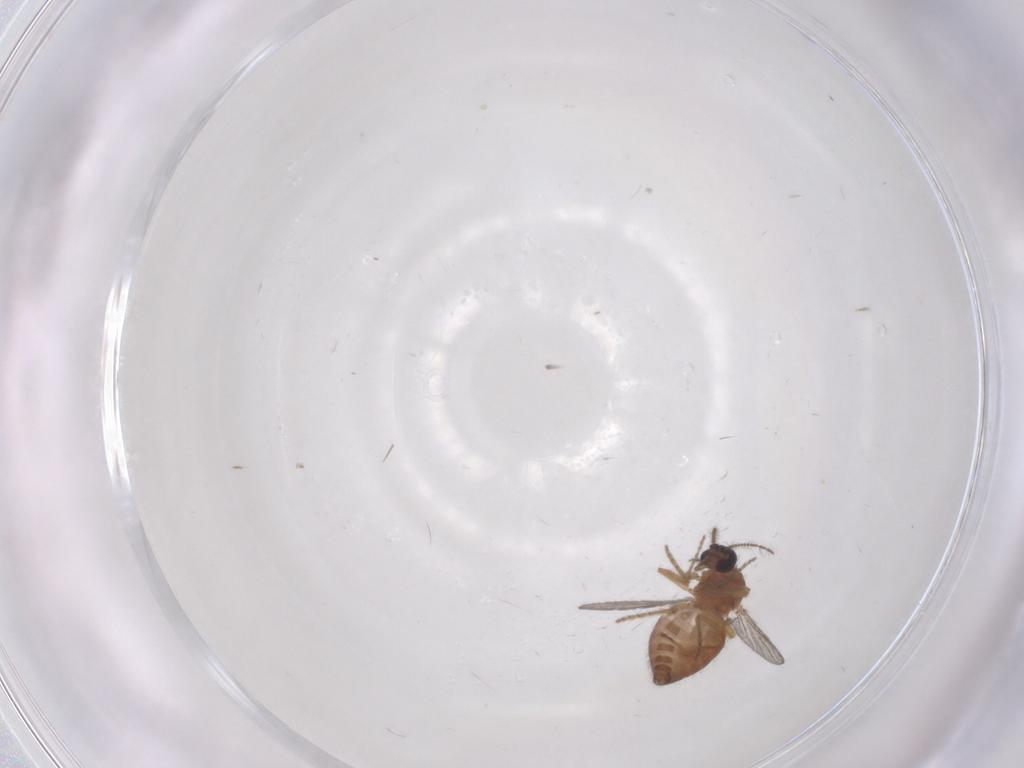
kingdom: Animalia
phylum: Arthropoda
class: Insecta
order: Diptera
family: Ceratopogonidae
